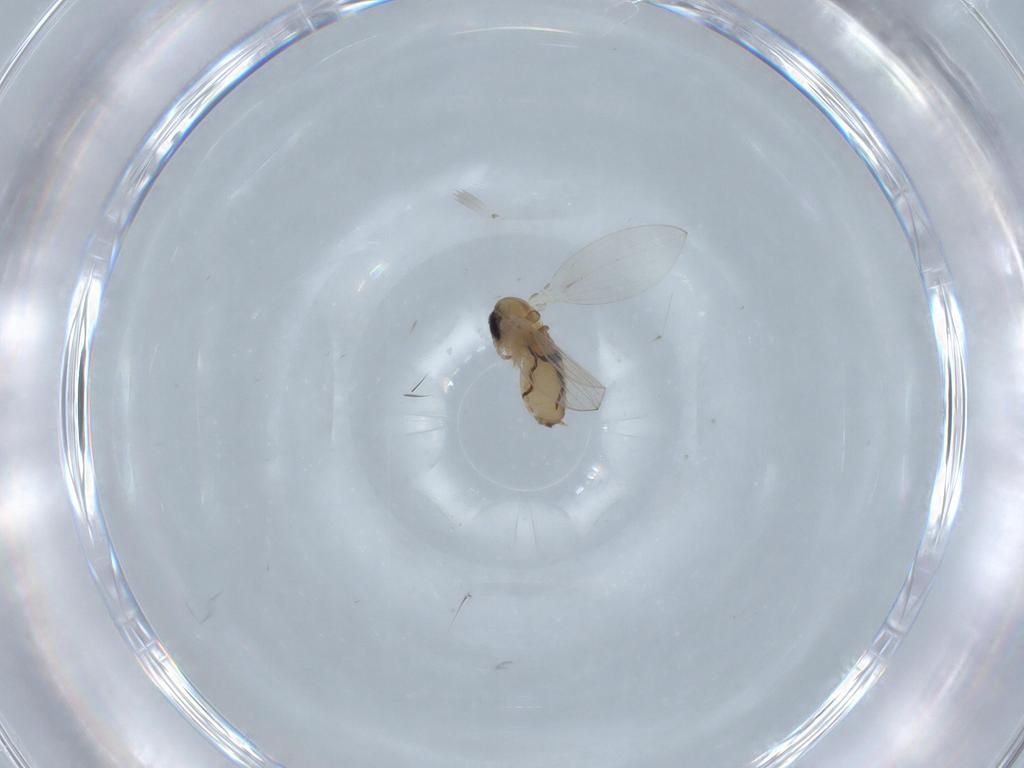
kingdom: Animalia
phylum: Arthropoda
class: Insecta
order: Diptera
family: Psychodidae
